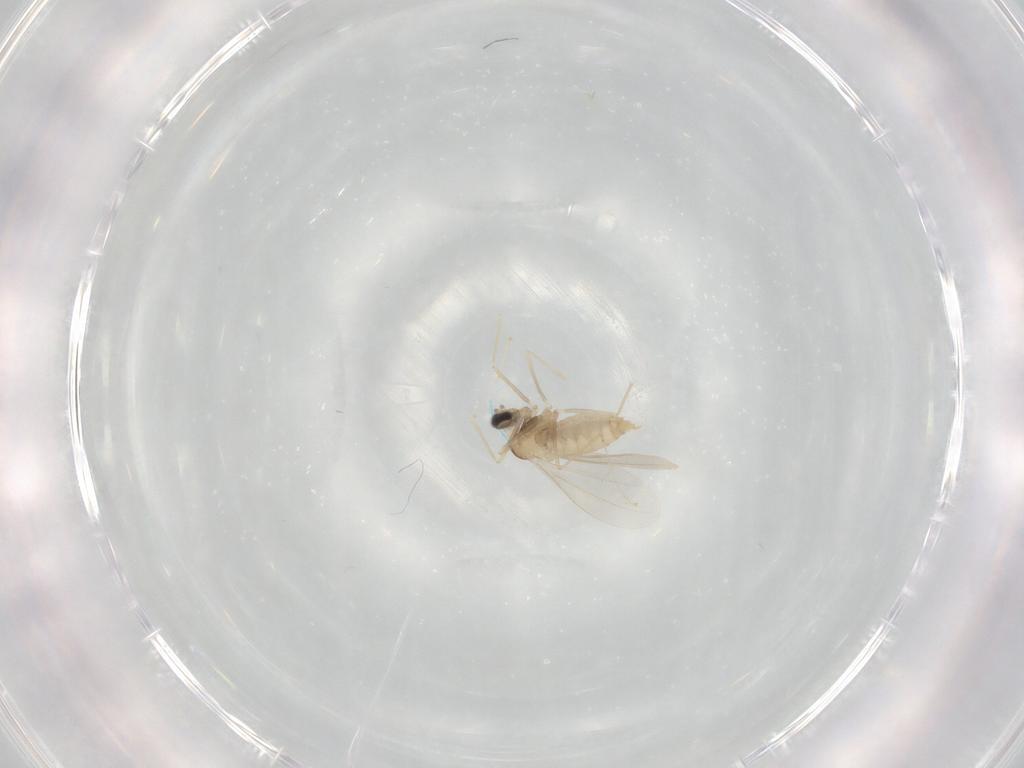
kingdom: Animalia
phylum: Arthropoda
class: Insecta
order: Diptera
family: Cecidomyiidae
